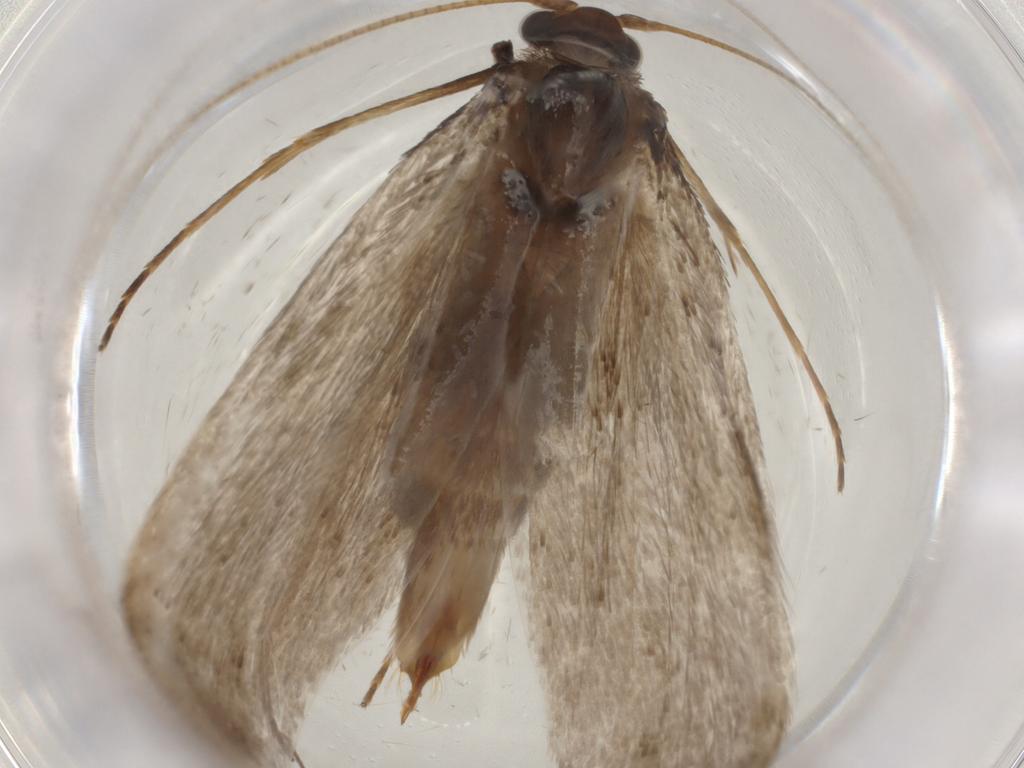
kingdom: Animalia
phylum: Arthropoda
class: Insecta
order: Lepidoptera
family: Adelidae
